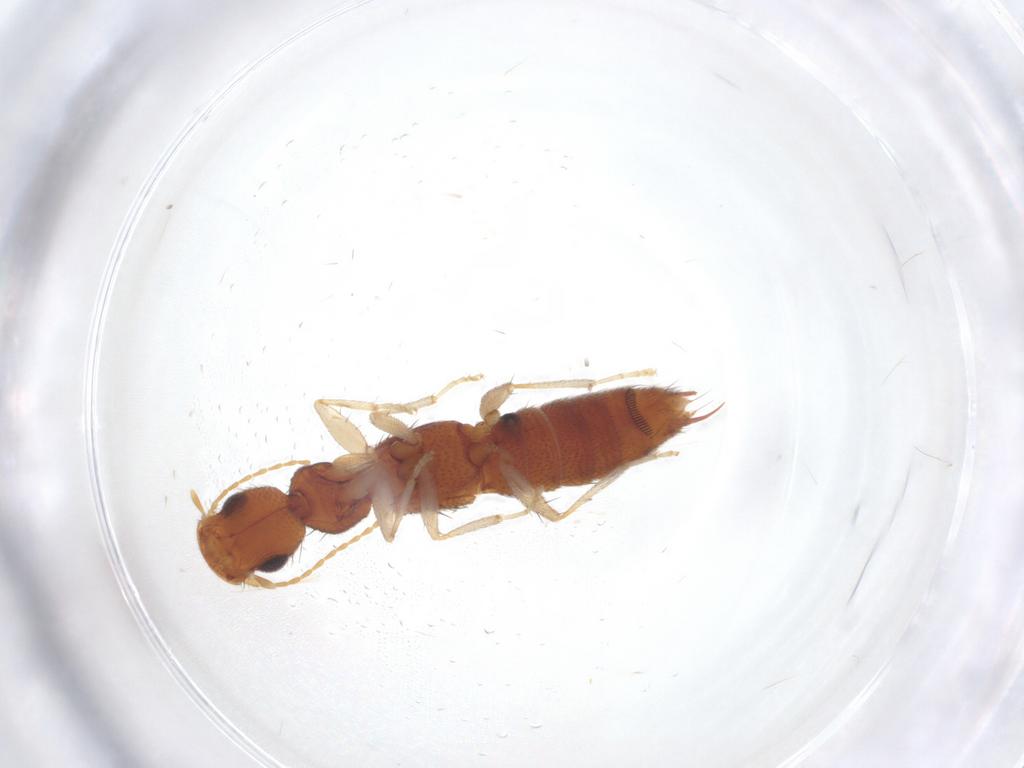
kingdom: Animalia
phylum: Arthropoda
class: Insecta
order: Coleoptera
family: Staphylinidae
